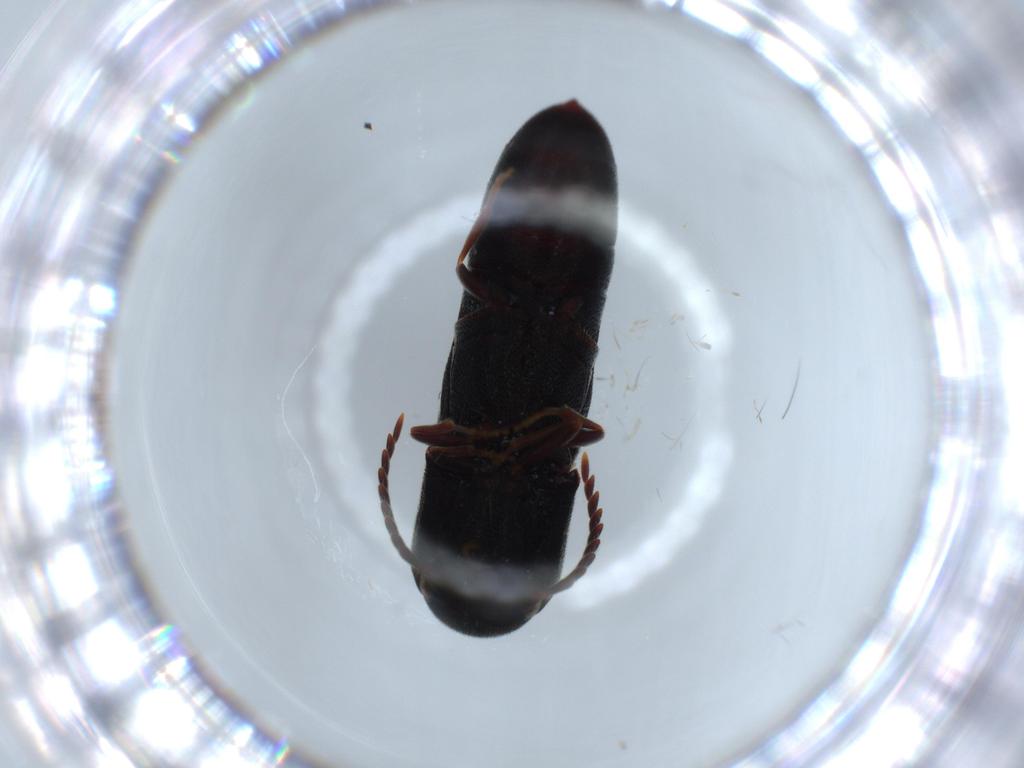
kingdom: Animalia
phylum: Arthropoda
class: Insecta
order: Coleoptera
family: Eucnemidae
